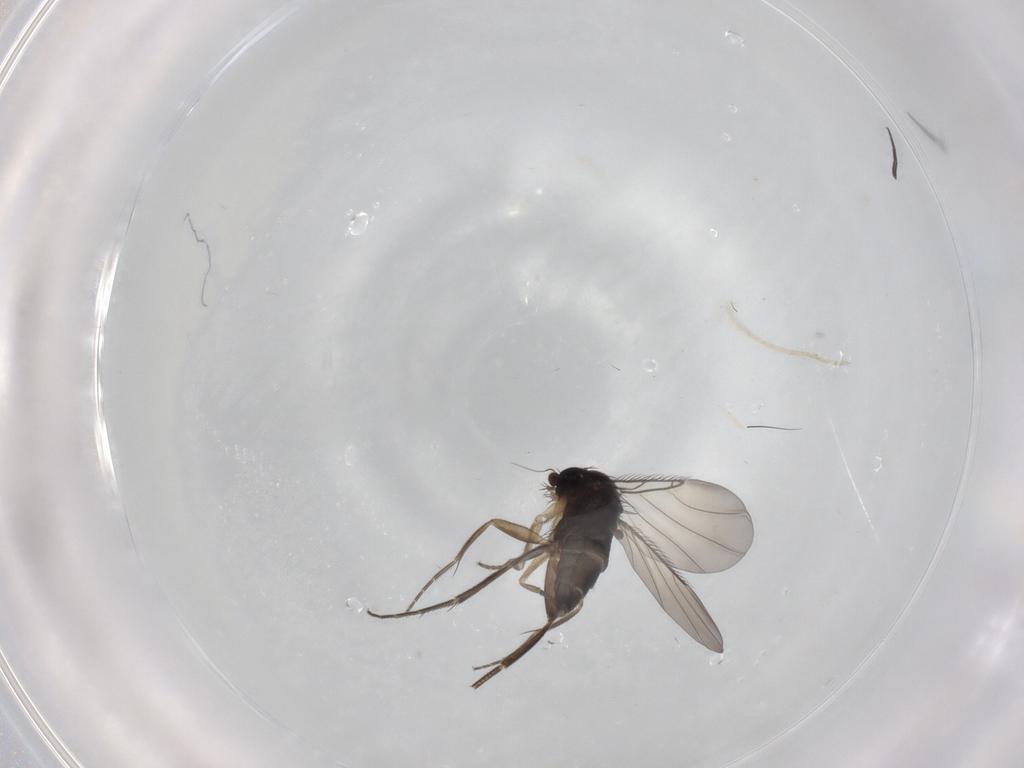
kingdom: Animalia
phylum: Arthropoda
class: Insecta
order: Diptera
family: Phoridae
